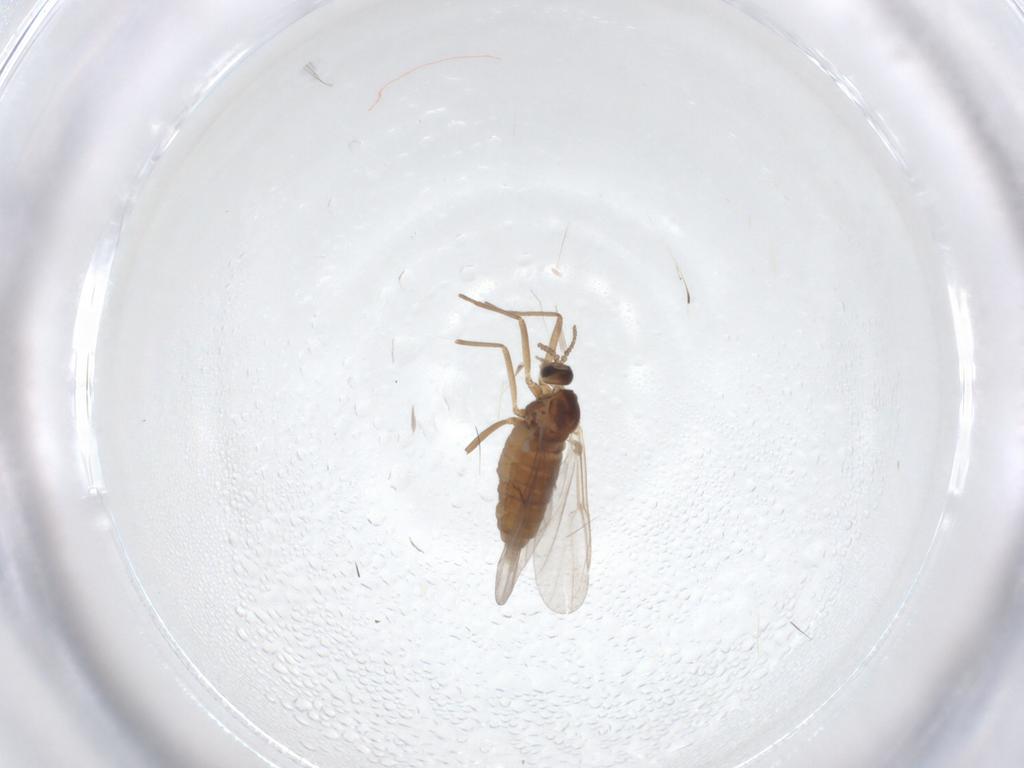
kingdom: Animalia
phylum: Arthropoda
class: Insecta
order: Diptera
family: Cecidomyiidae
